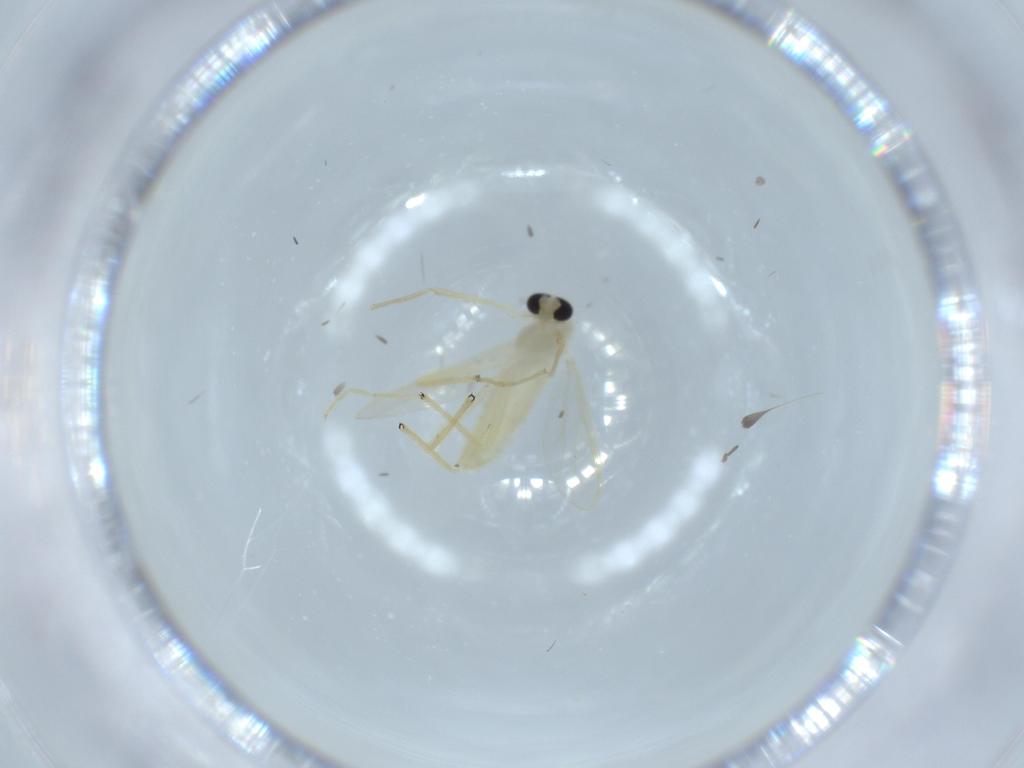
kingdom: Animalia
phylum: Arthropoda
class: Insecta
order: Diptera
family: Chironomidae
